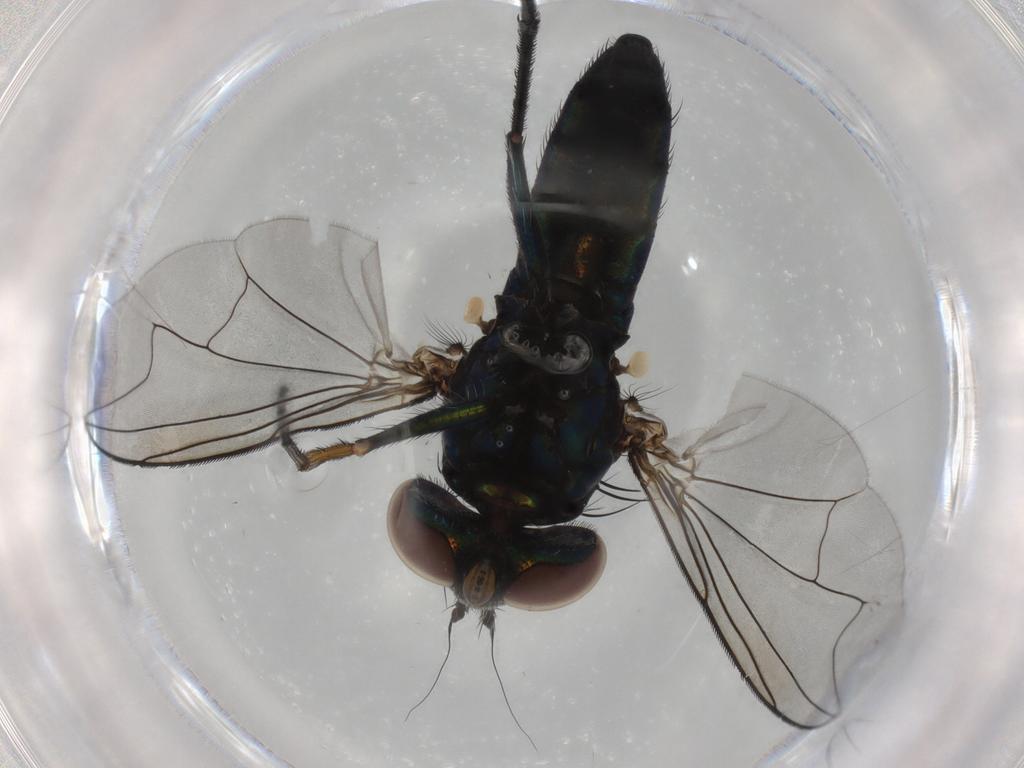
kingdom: Animalia
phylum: Arthropoda
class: Insecta
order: Diptera
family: Dolichopodidae
